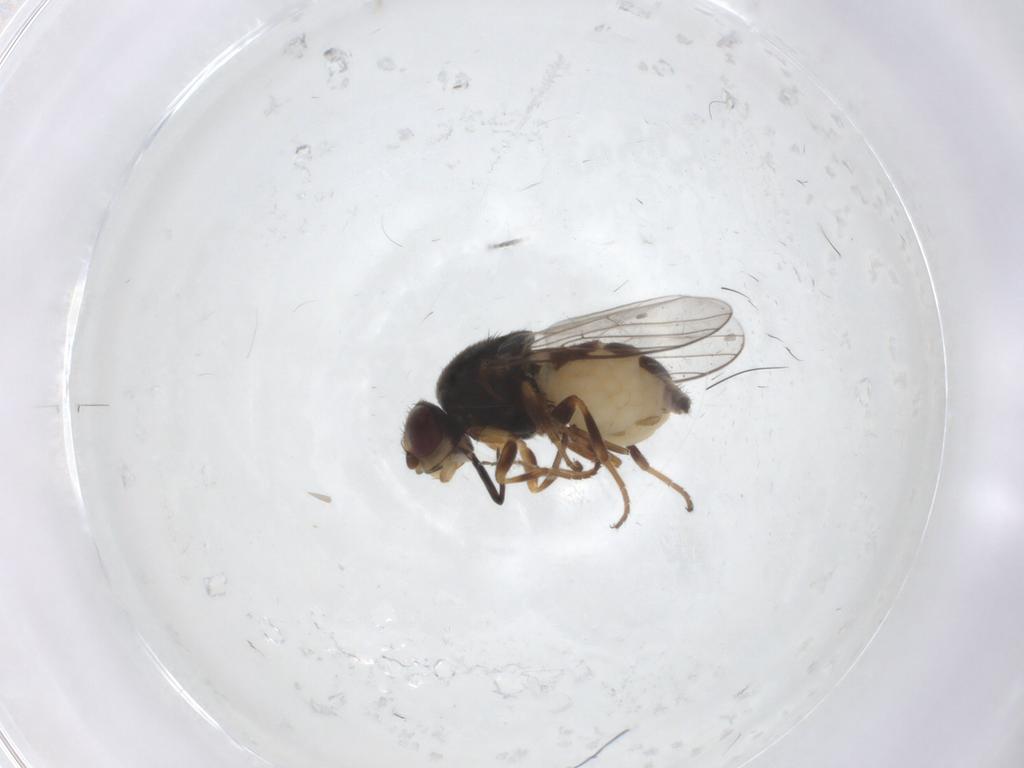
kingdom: Animalia
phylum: Arthropoda
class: Insecta
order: Diptera
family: Chloropidae
